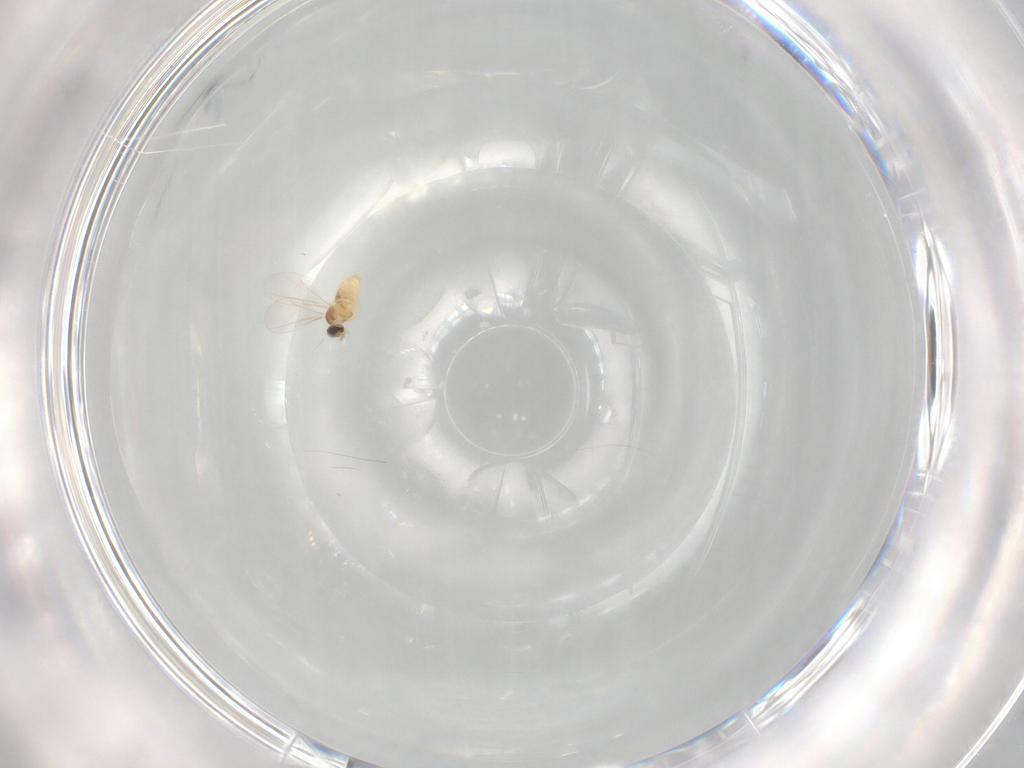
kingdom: Animalia
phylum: Arthropoda
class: Insecta
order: Diptera
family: Cecidomyiidae
